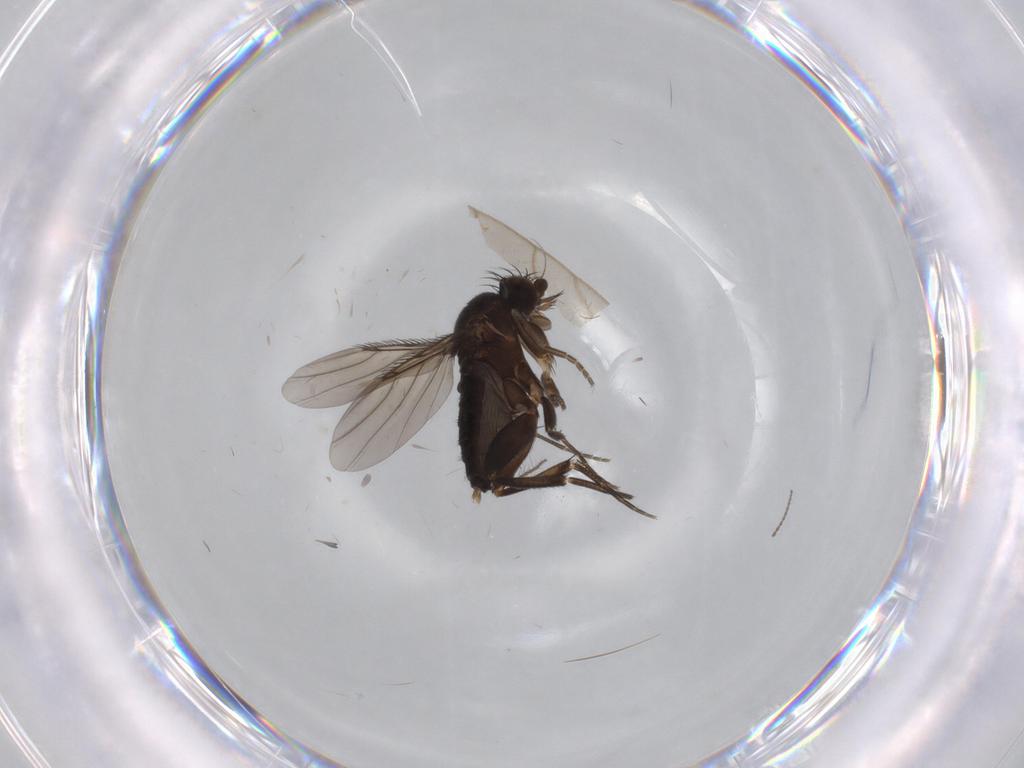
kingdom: Animalia
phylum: Arthropoda
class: Insecta
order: Diptera
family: Phoridae
